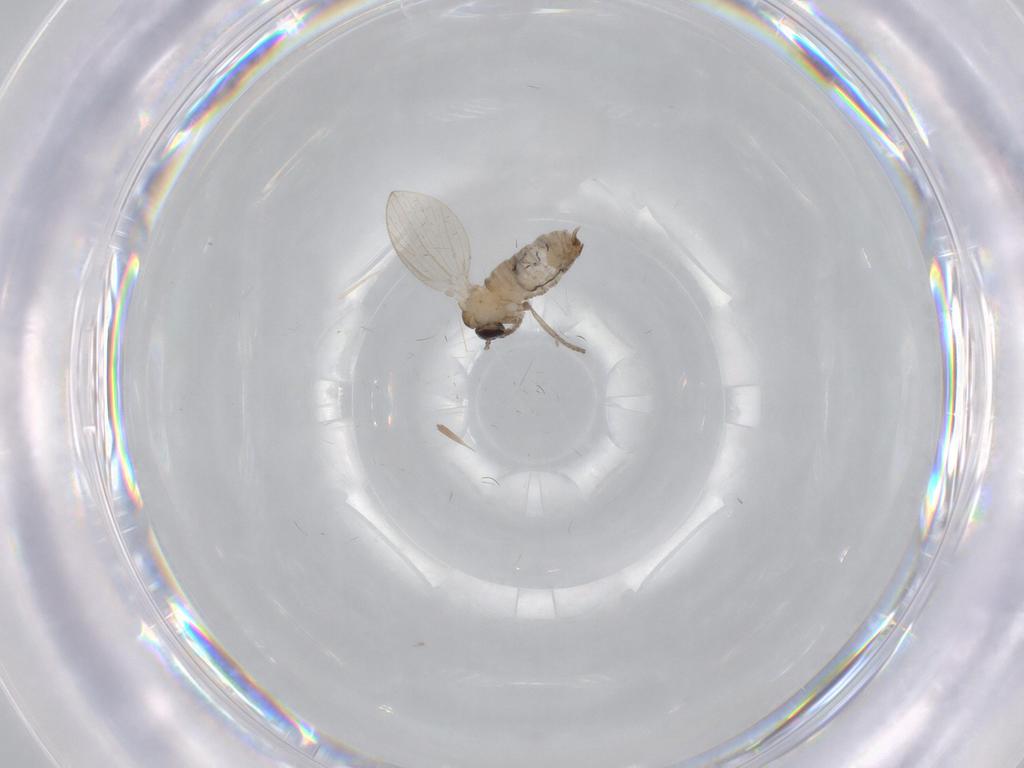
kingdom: Animalia
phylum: Arthropoda
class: Insecta
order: Diptera
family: Psychodidae
